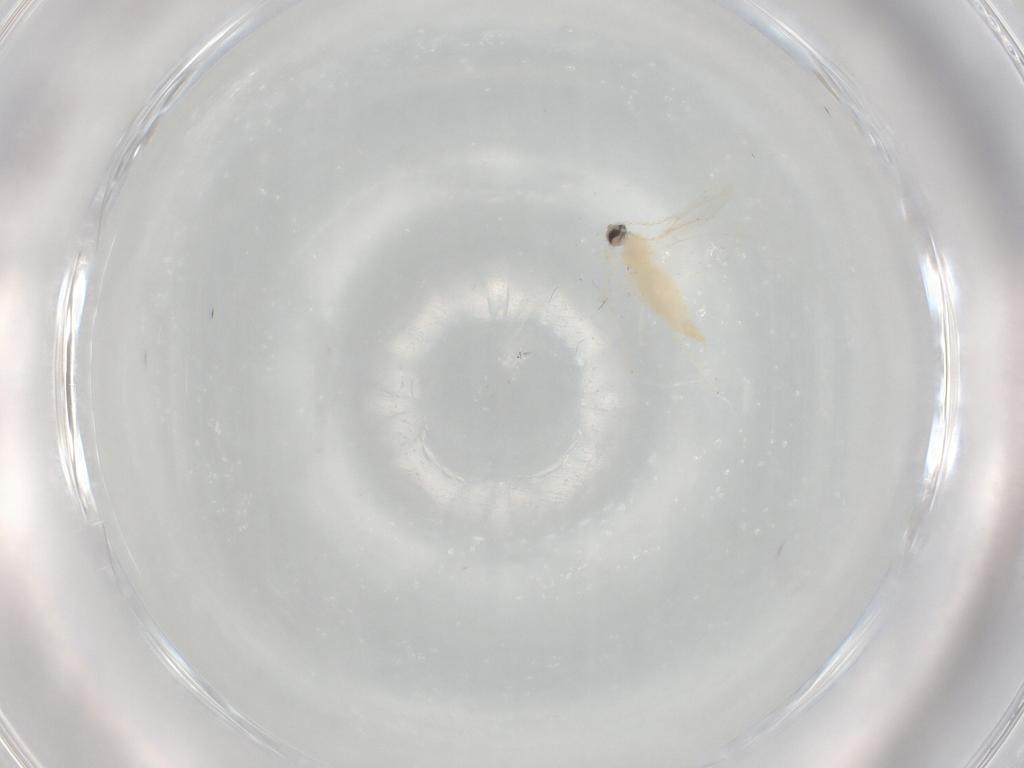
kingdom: Animalia
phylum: Arthropoda
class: Insecta
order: Diptera
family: Cecidomyiidae
